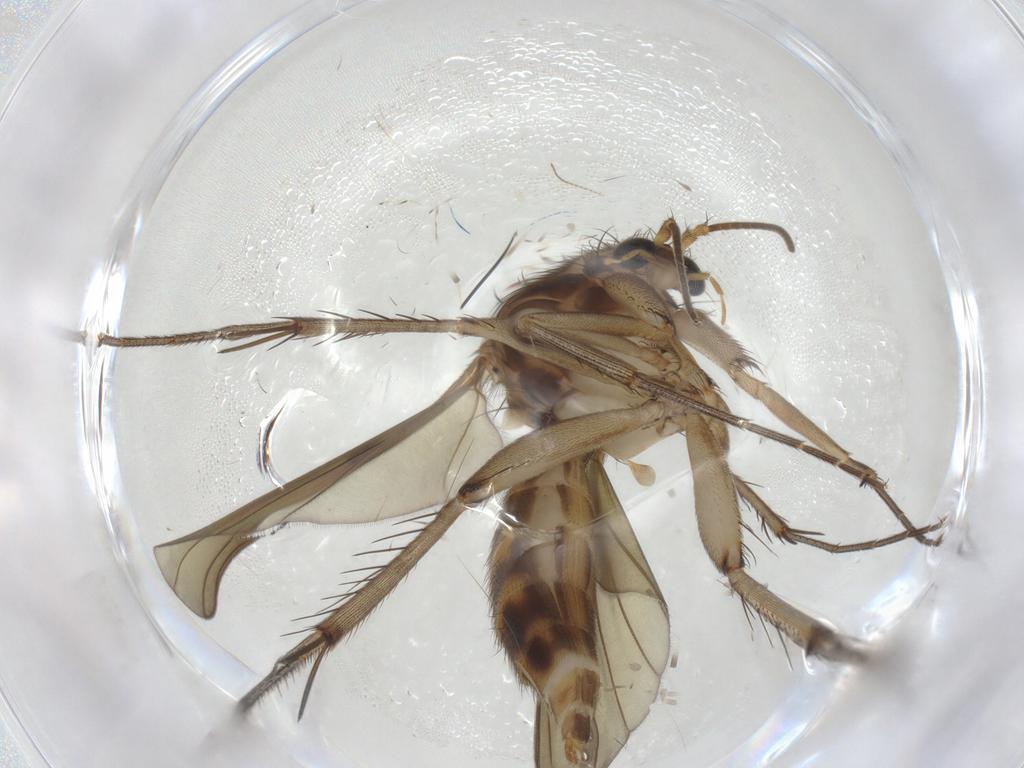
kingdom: Animalia
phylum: Arthropoda
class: Insecta
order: Diptera
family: Mycetophilidae
